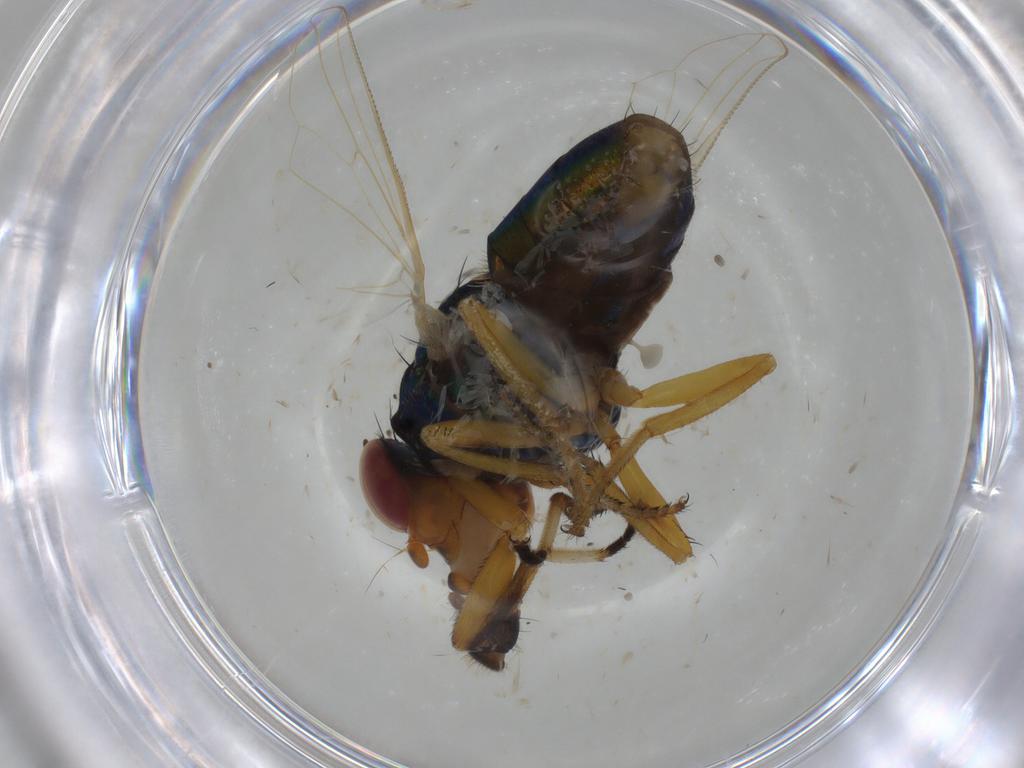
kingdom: Animalia
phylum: Arthropoda
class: Insecta
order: Diptera
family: Ulidiidae
